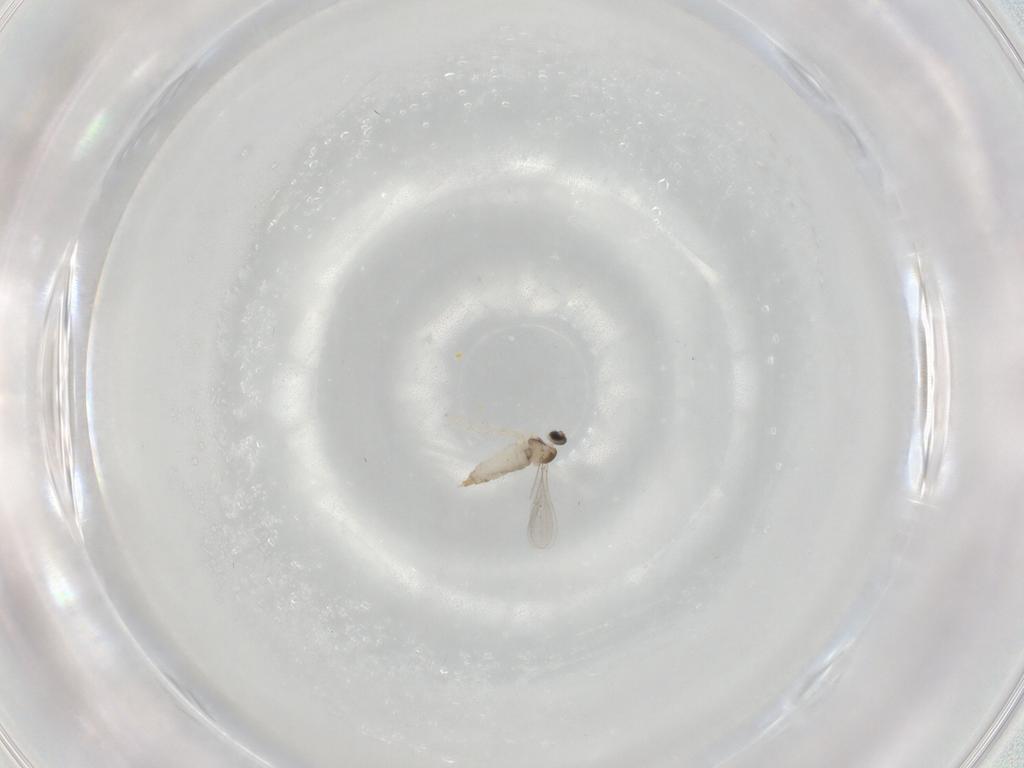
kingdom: Animalia
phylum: Arthropoda
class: Insecta
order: Diptera
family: Cecidomyiidae
